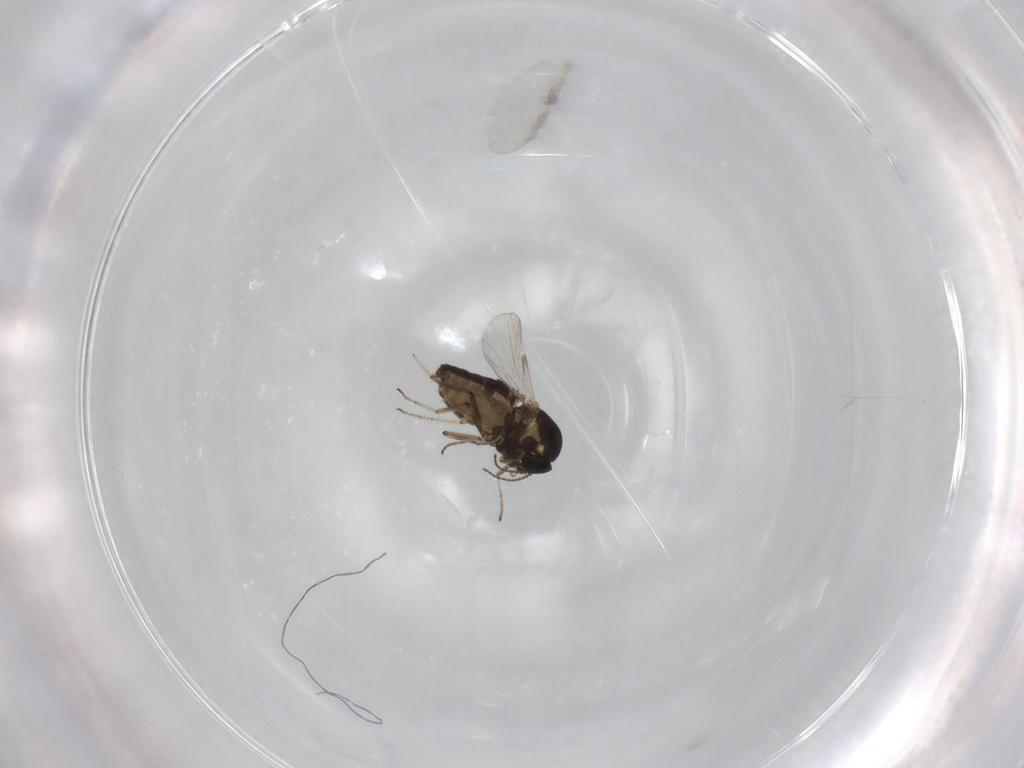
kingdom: Animalia
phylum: Arthropoda
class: Insecta
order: Diptera
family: Ceratopogonidae
